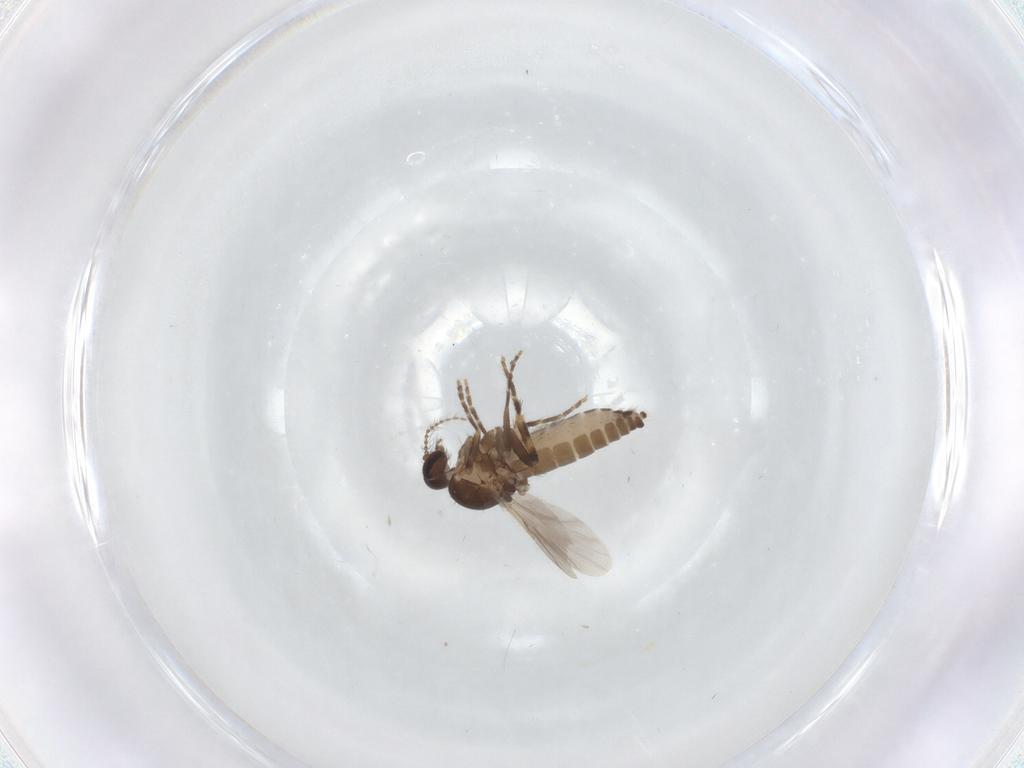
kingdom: Animalia
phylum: Arthropoda
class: Insecta
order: Diptera
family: Ceratopogonidae
